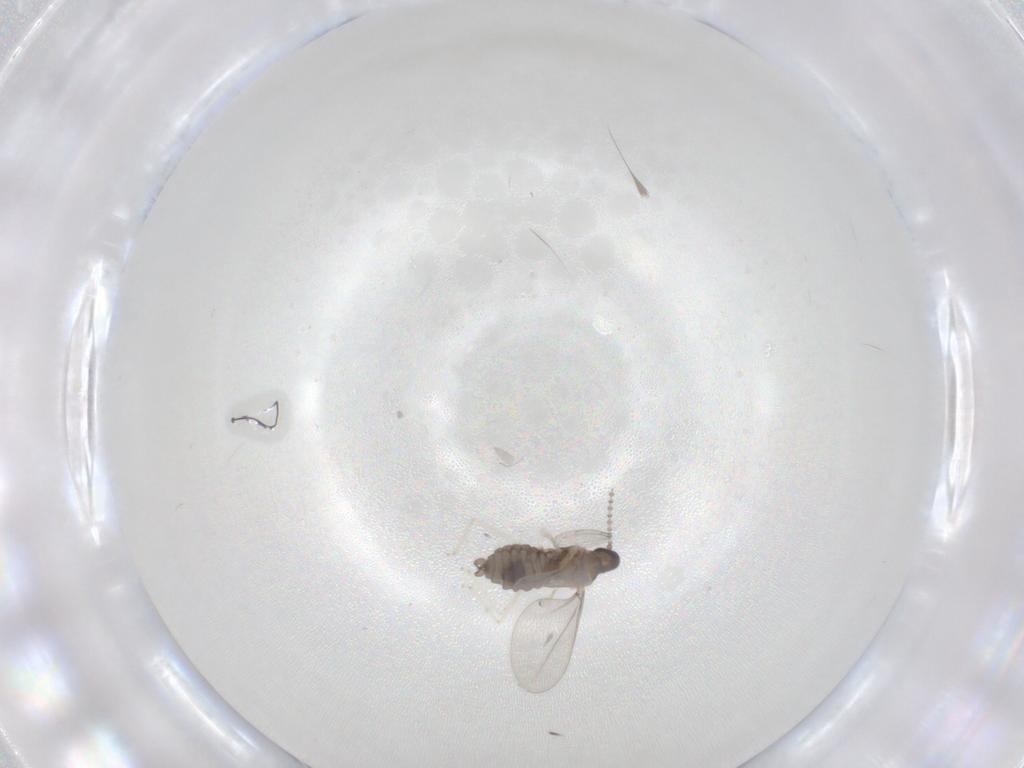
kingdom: Animalia
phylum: Arthropoda
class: Insecta
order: Diptera
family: Cecidomyiidae
